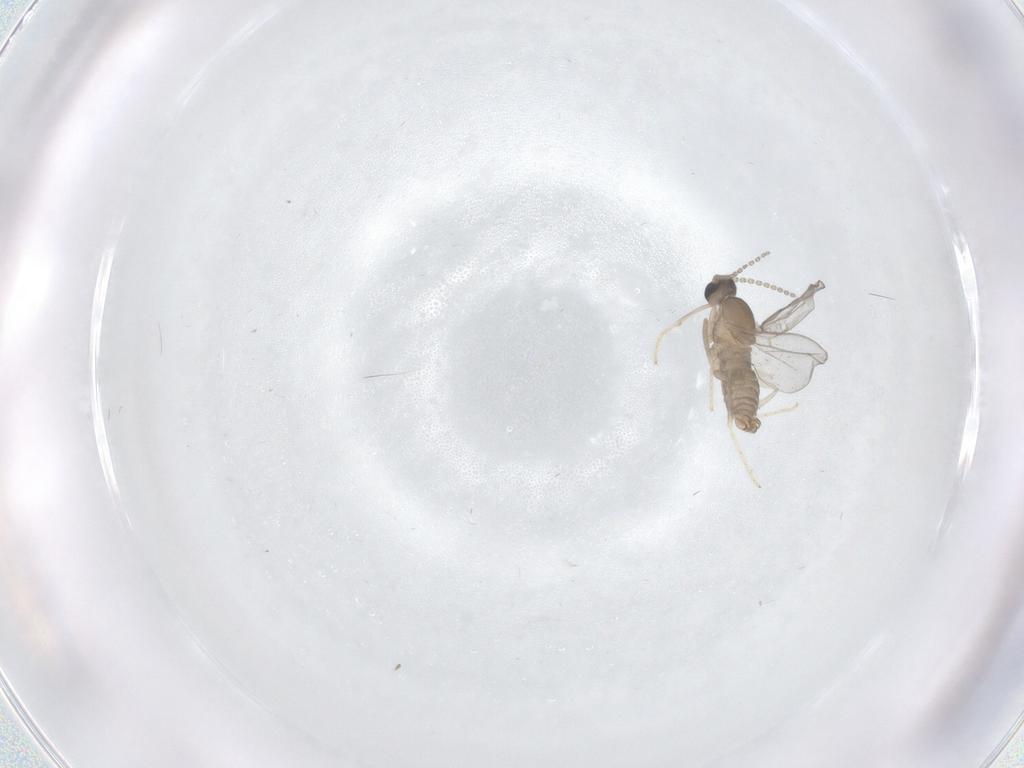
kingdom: Animalia
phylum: Arthropoda
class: Insecta
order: Diptera
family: Cecidomyiidae
